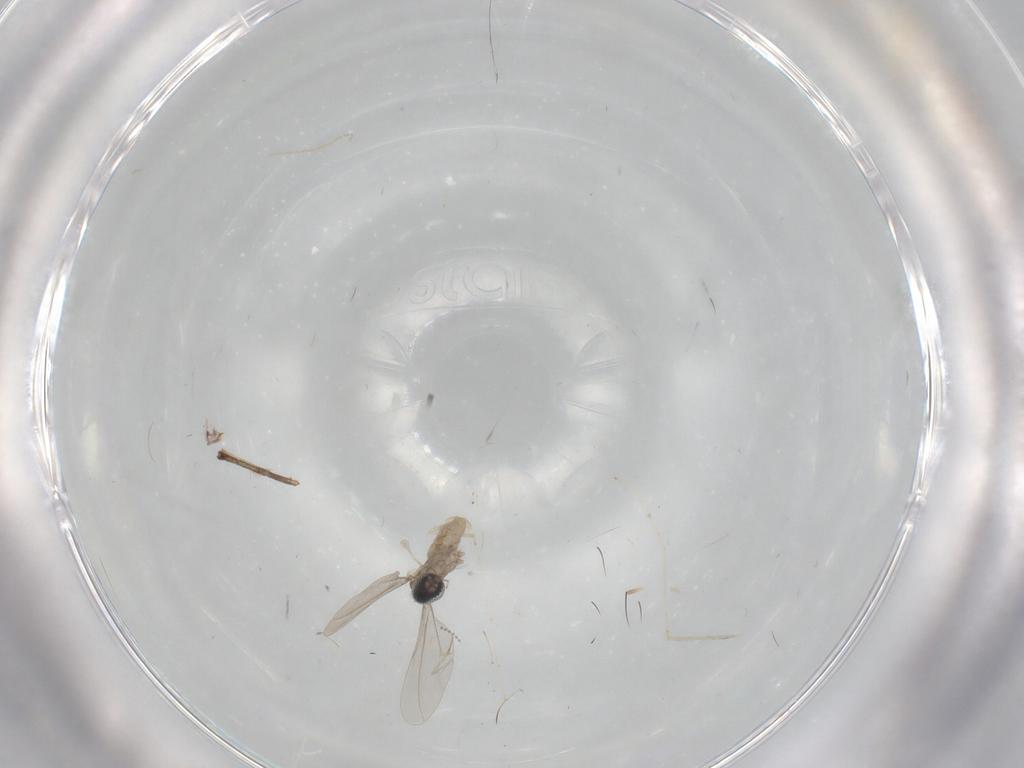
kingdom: Animalia
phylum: Arthropoda
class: Insecta
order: Diptera
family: Cecidomyiidae
